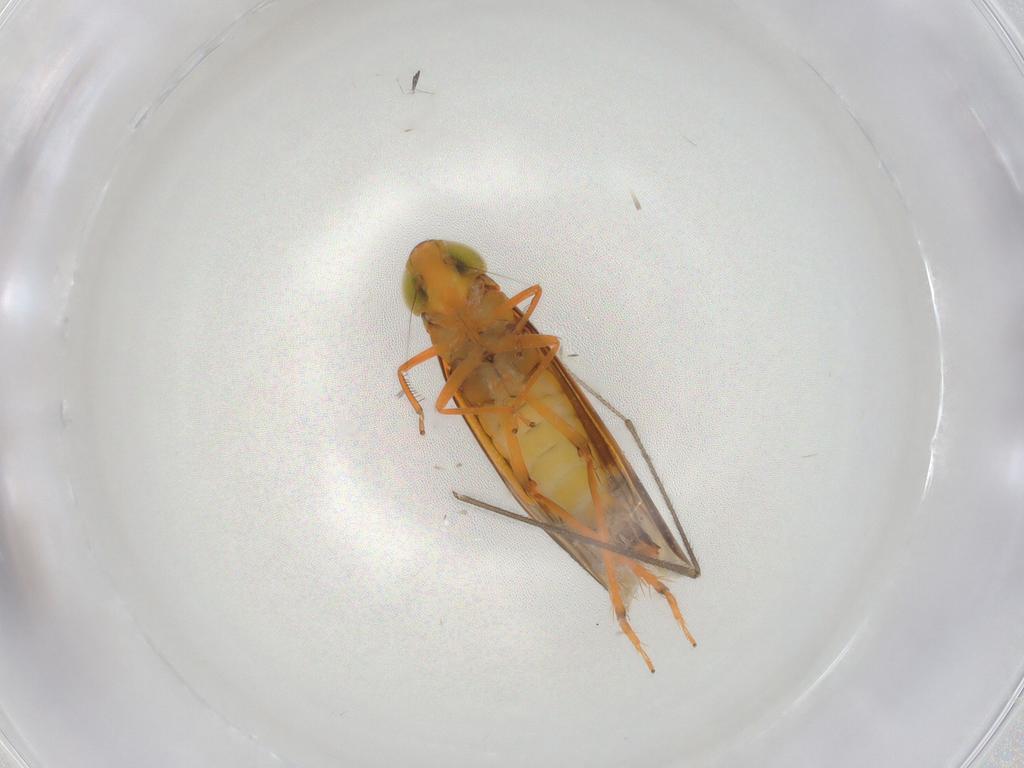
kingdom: Animalia
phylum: Arthropoda
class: Insecta
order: Hemiptera
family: Cicadellidae
